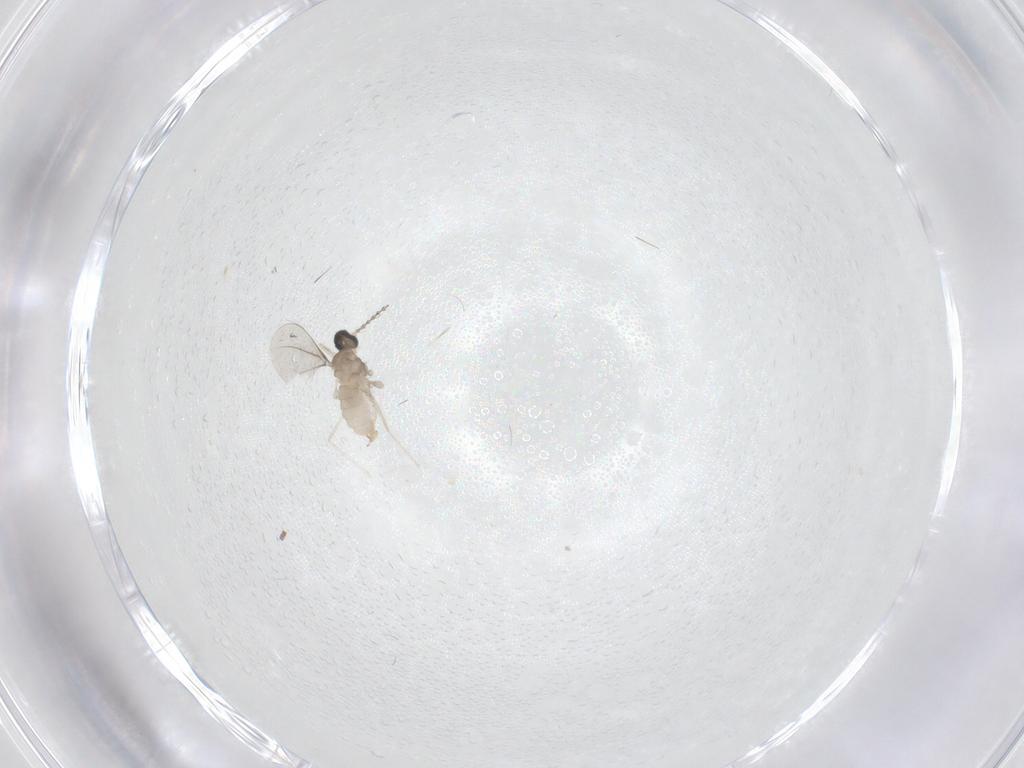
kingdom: Animalia
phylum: Arthropoda
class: Insecta
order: Diptera
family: Cecidomyiidae
